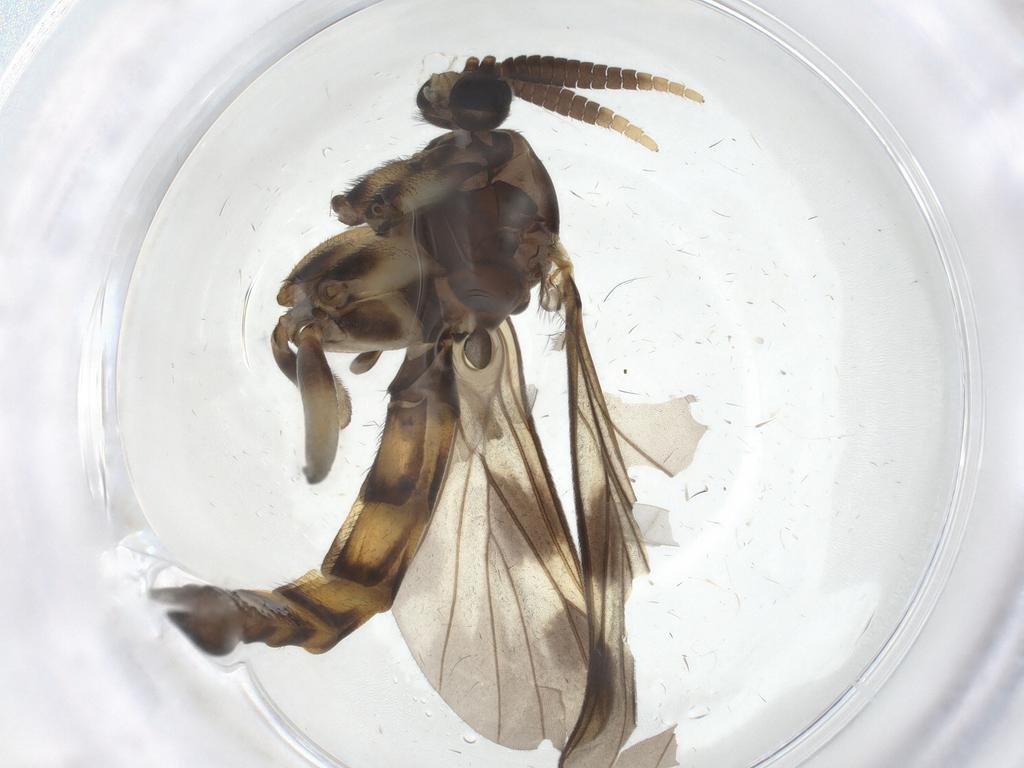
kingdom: Animalia
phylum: Arthropoda
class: Insecta
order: Diptera
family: Keroplatidae
